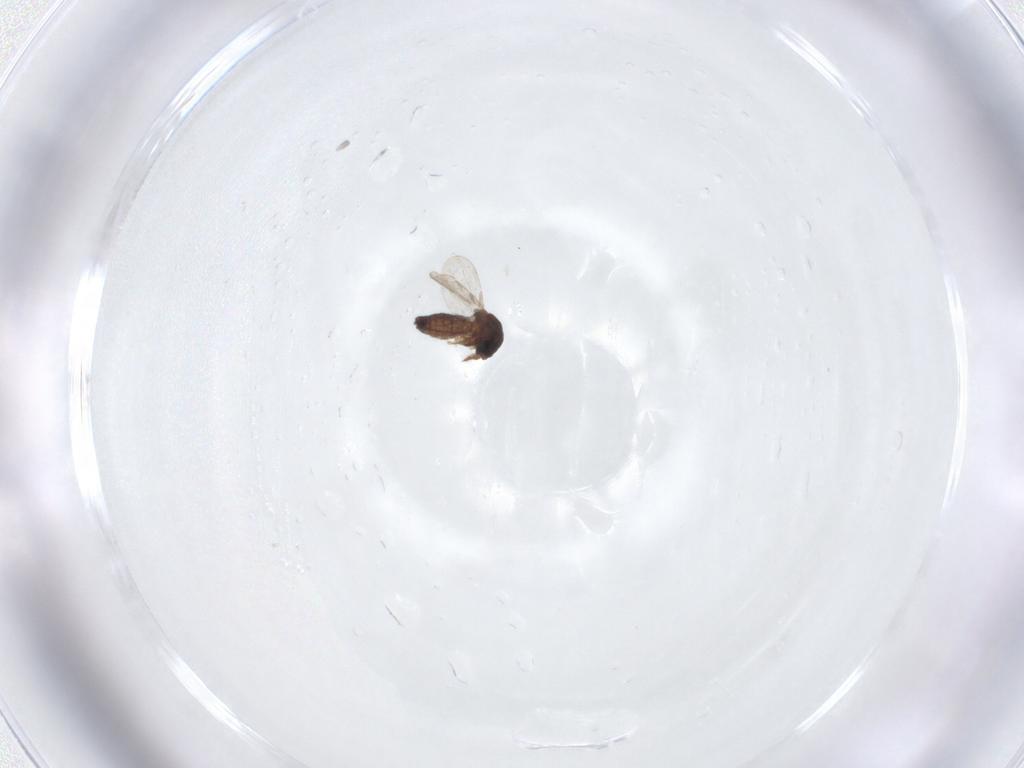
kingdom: Animalia
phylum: Arthropoda
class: Insecta
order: Diptera
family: Ceratopogonidae
